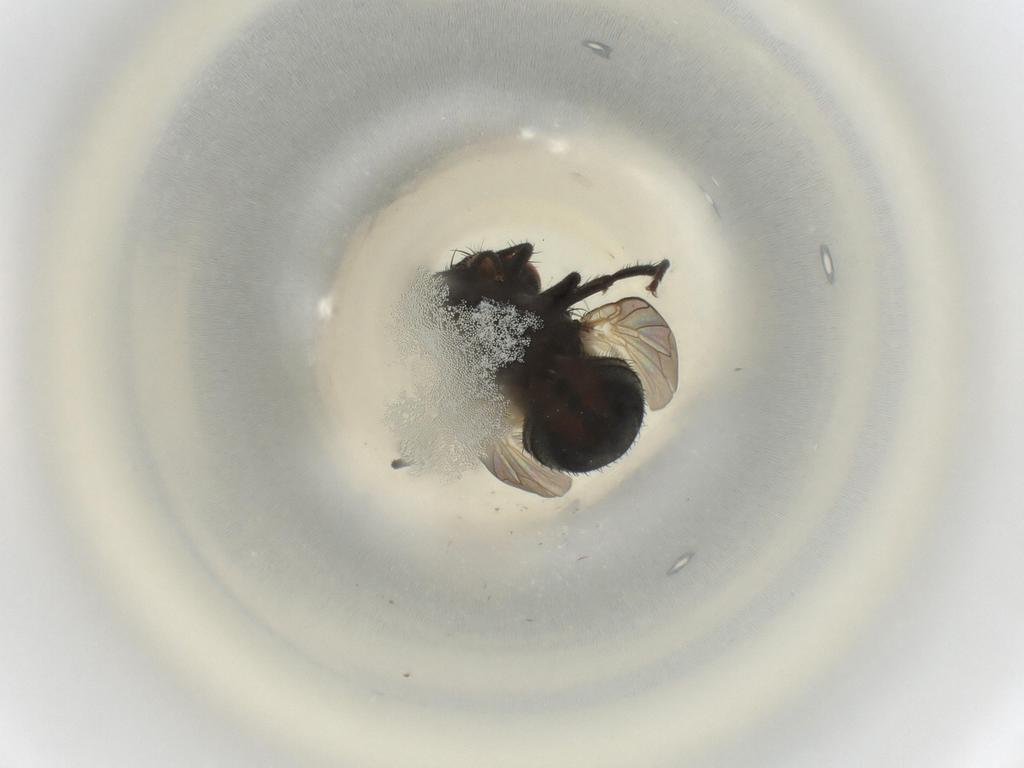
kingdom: Animalia
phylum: Arthropoda
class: Insecta
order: Diptera
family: Muscidae
